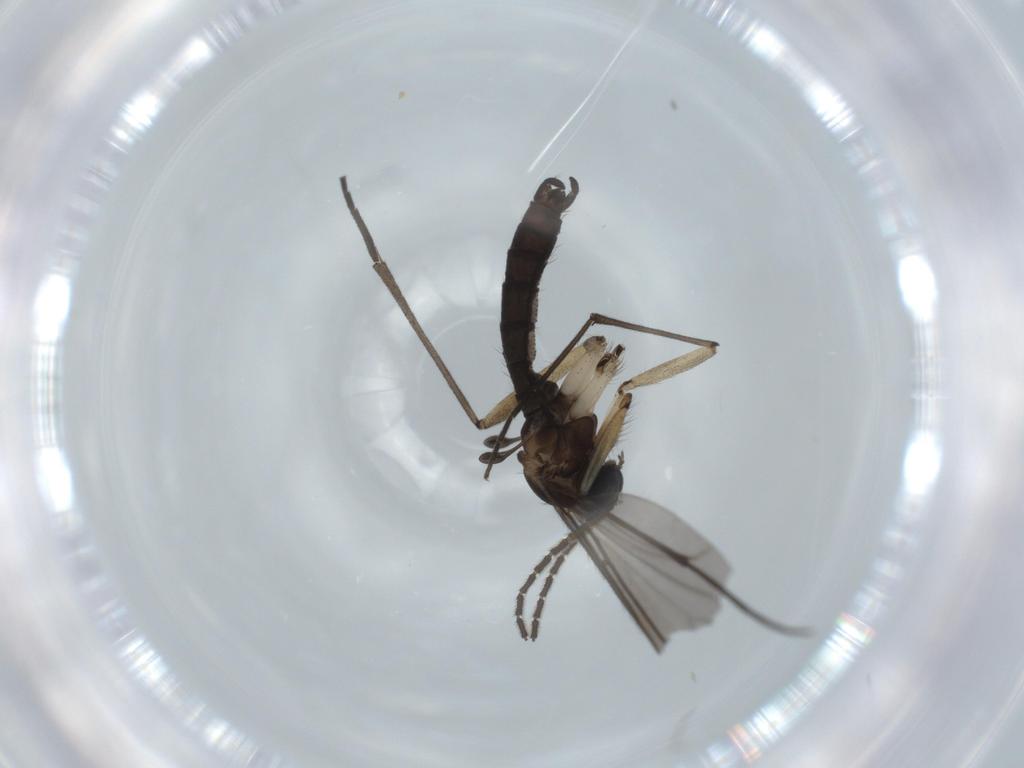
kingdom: Animalia
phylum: Arthropoda
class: Insecta
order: Diptera
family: Sciaridae
